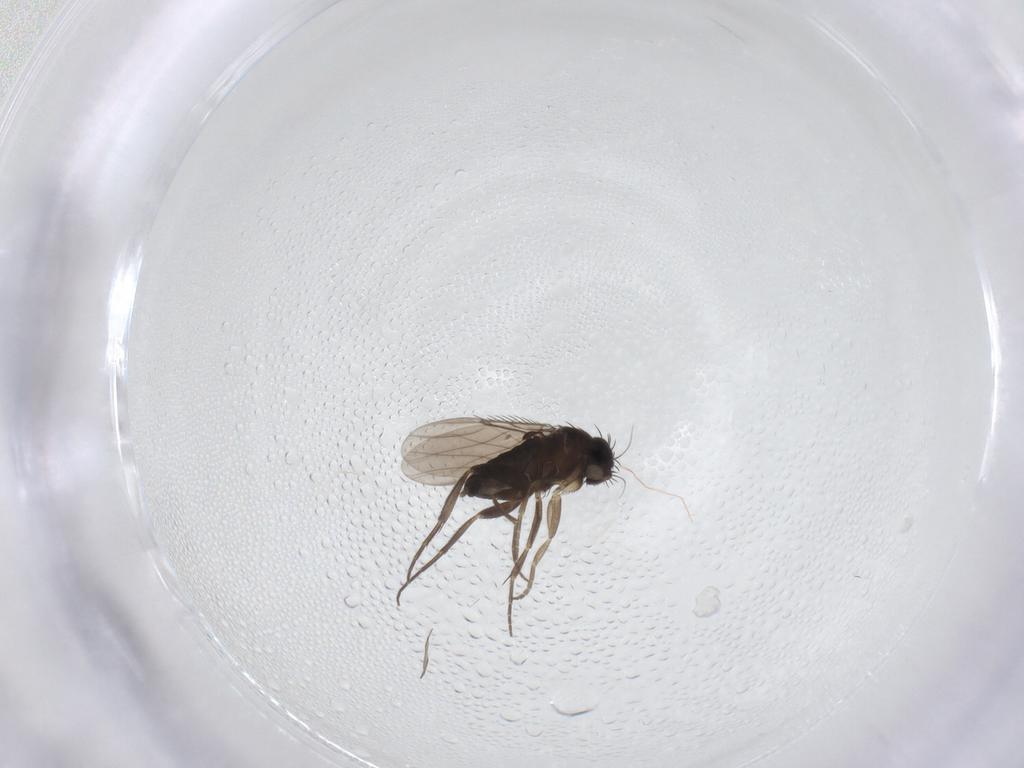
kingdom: Animalia
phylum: Arthropoda
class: Insecta
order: Diptera
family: Phoridae
